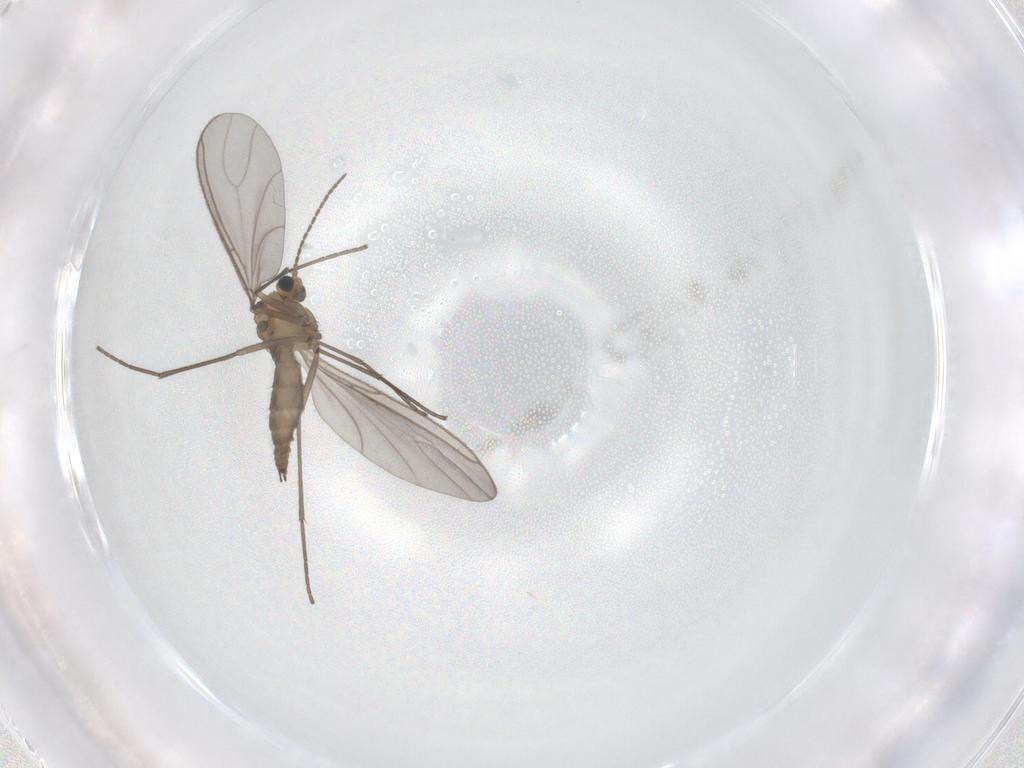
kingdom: Animalia
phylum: Arthropoda
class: Insecta
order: Diptera
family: Sciaridae
